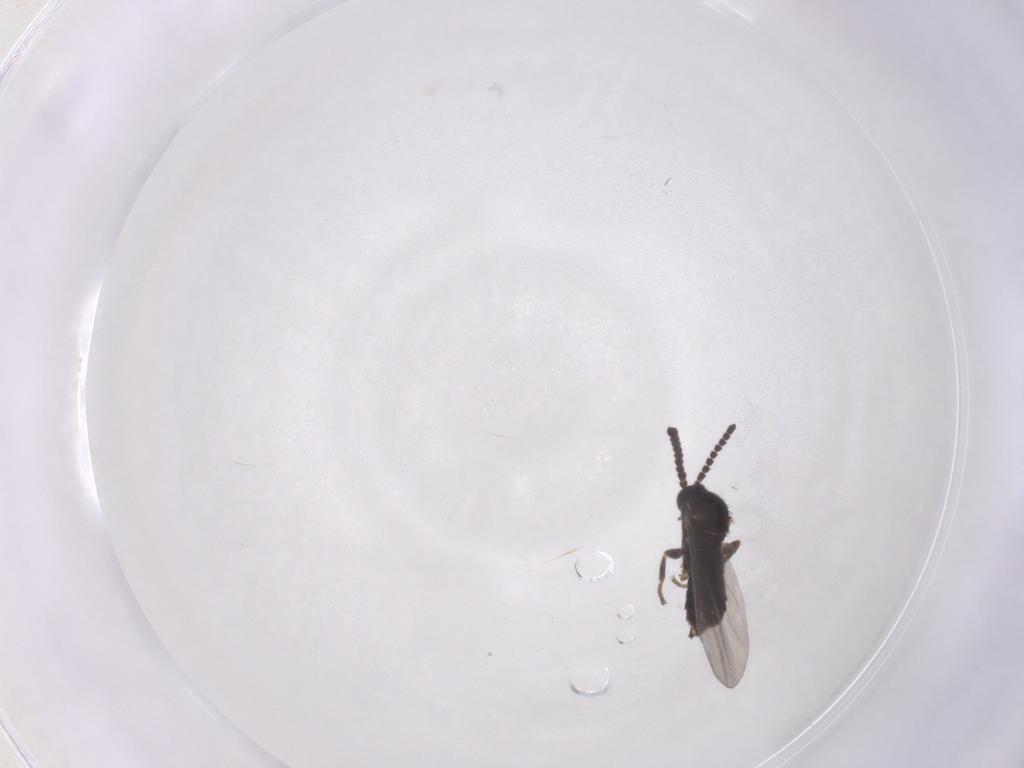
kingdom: Animalia
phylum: Arthropoda
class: Insecta
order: Diptera
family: Scatopsidae
